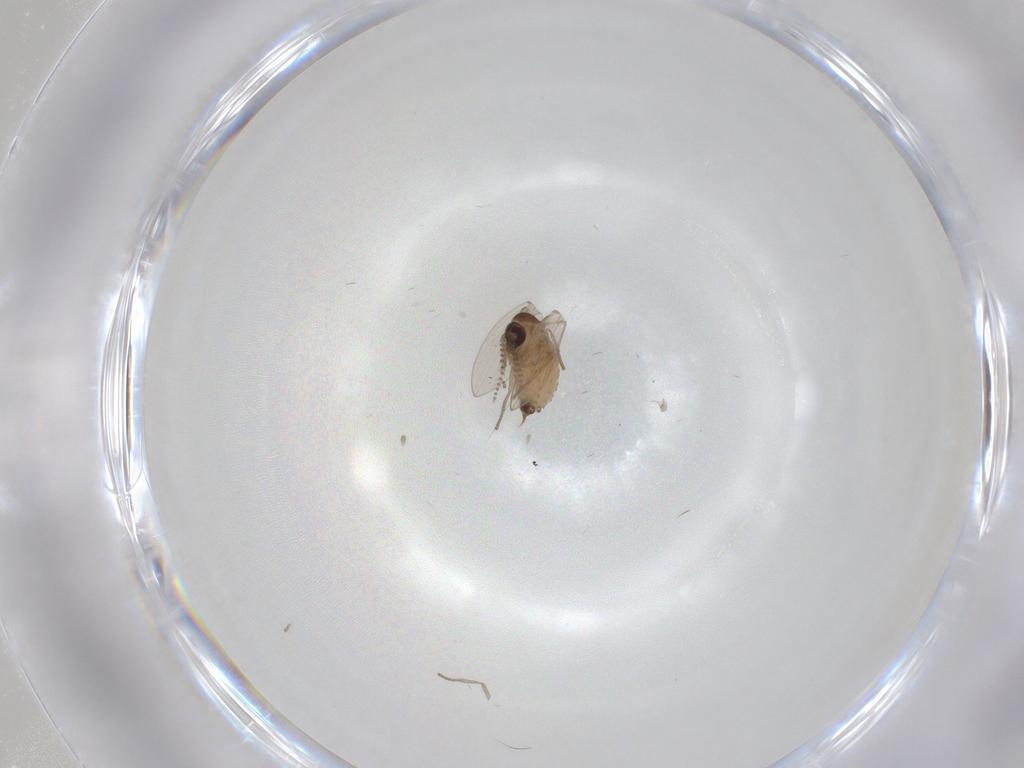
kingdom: Animalia
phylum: Arthropoda
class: Insecta
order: Diptera
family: Psychodidae
